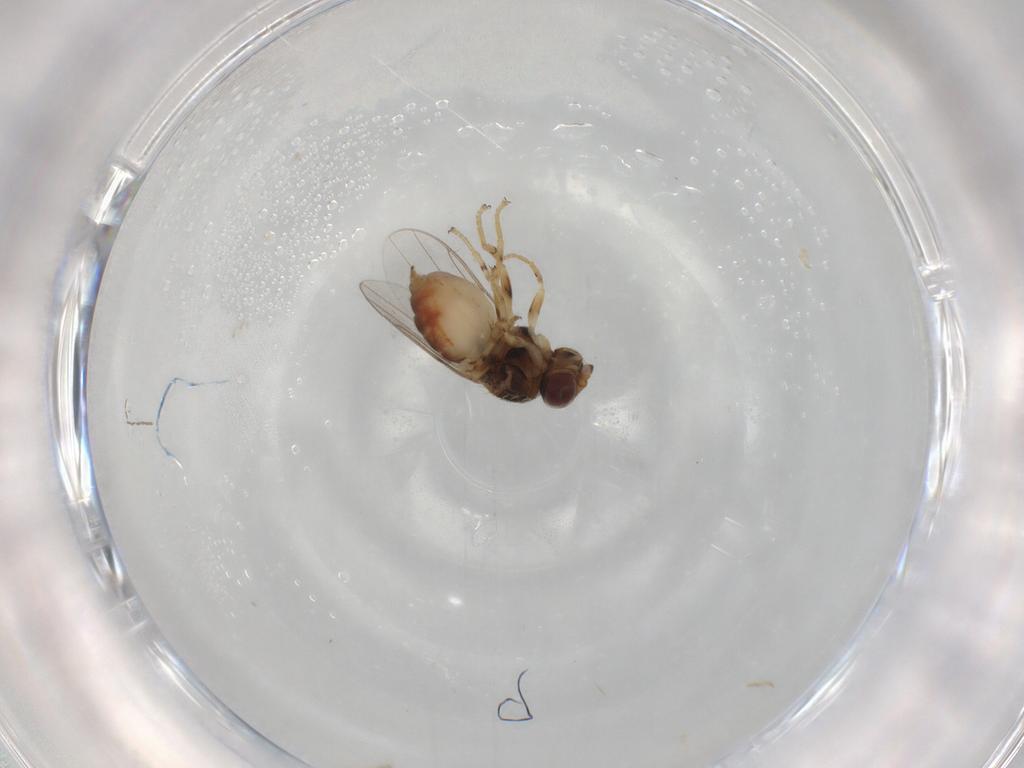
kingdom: Animalia
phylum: Arthropoda
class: Insecta
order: Diptera
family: Chloropidae
